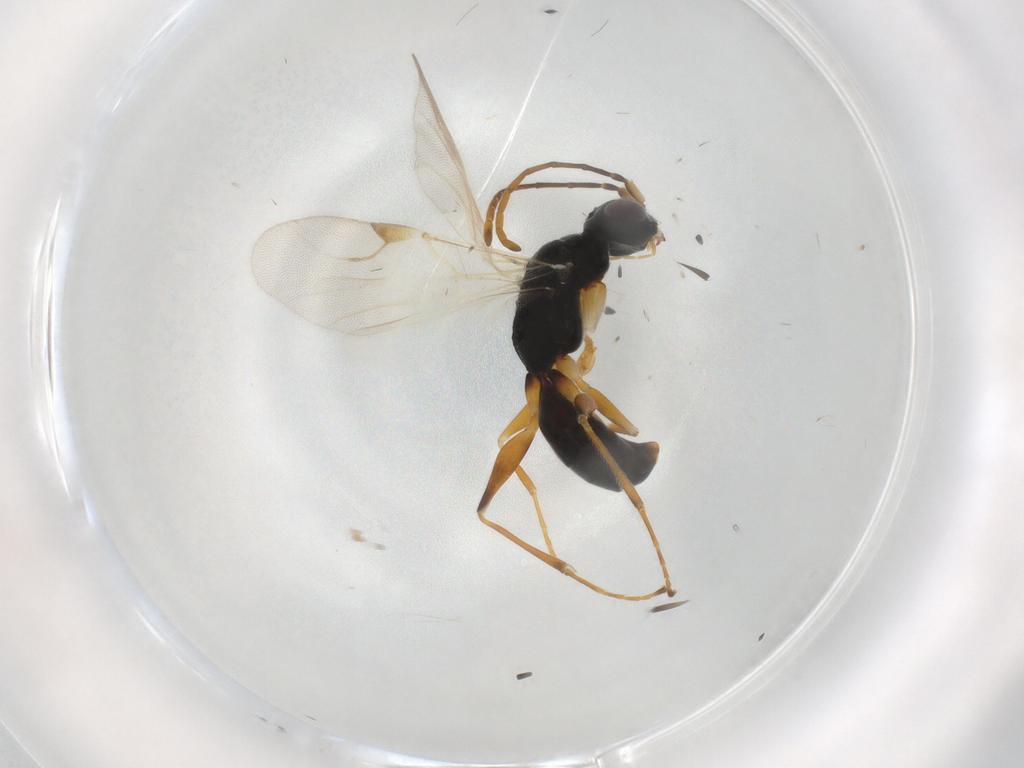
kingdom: Animalia
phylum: Arthropoda
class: Insecta
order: Hymenoptera
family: Dryinidae
